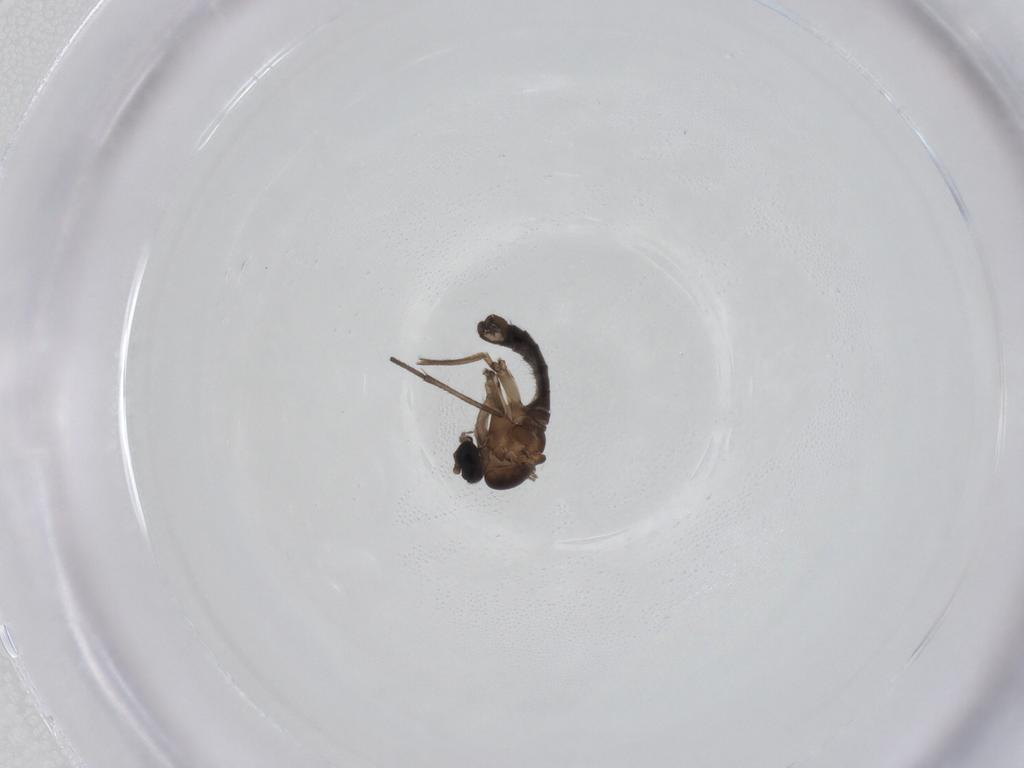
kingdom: Animalia
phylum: Arthropoda
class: Insecta
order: Diptera
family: Sciaridae
